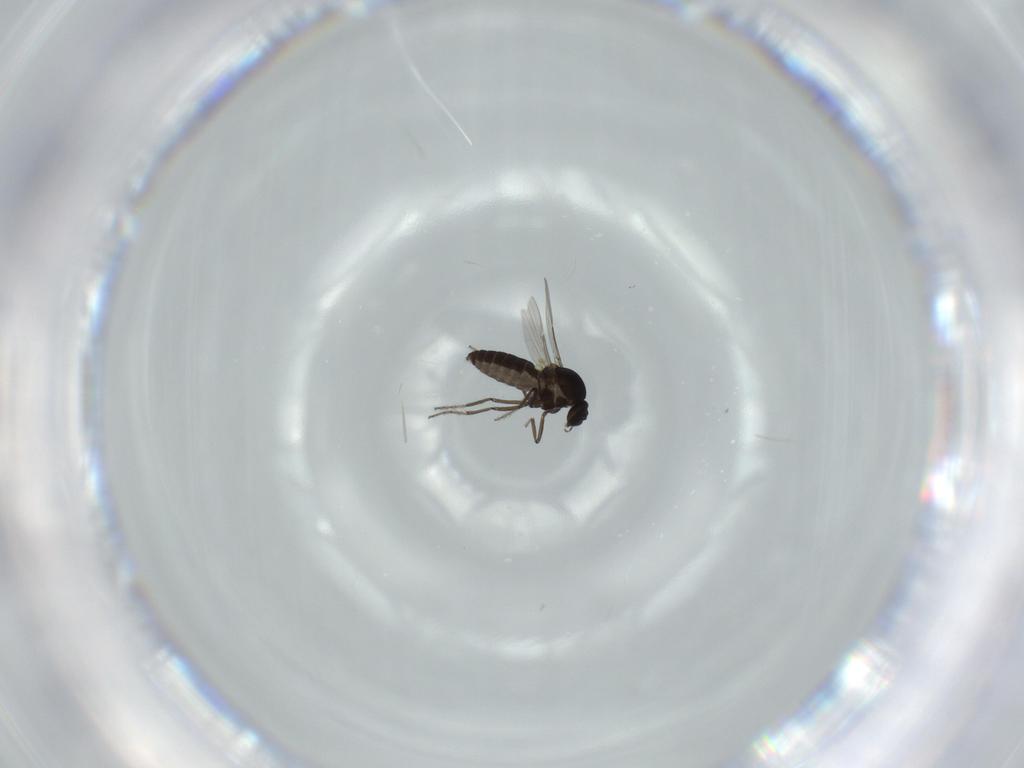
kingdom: Animalia
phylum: Arthropoda
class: Insecta
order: Diptera
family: Ceratopogonidae
